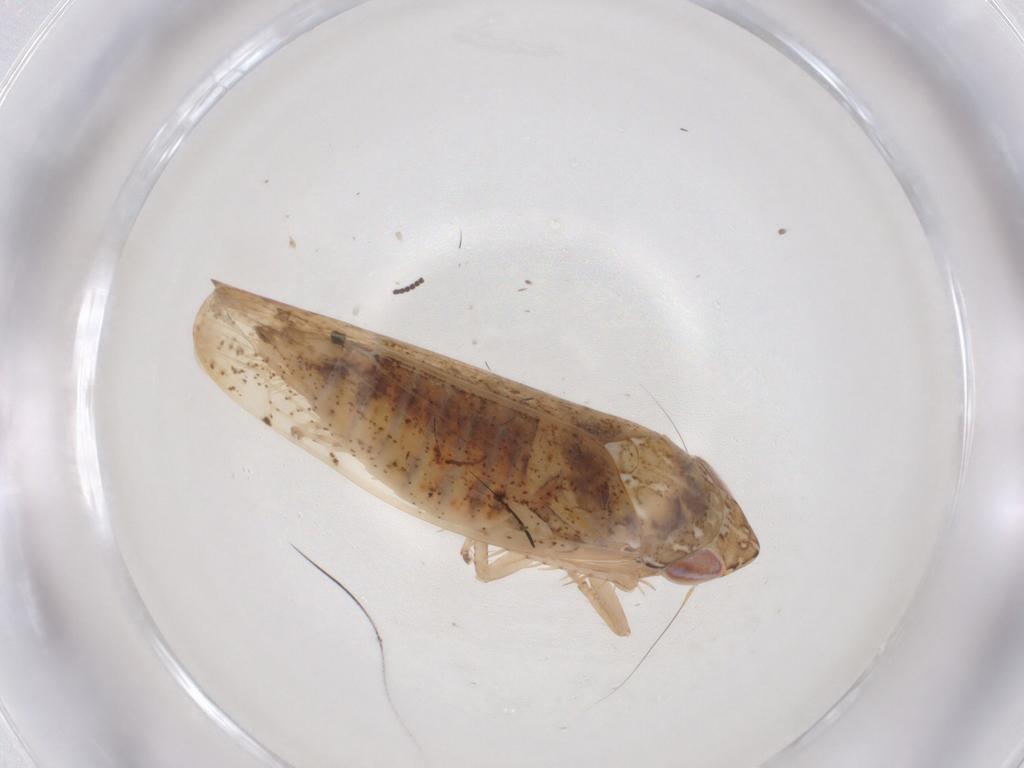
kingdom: Animalia
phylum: Arthropoda
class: Insecta
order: Hemiptera
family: Cicadellidae
